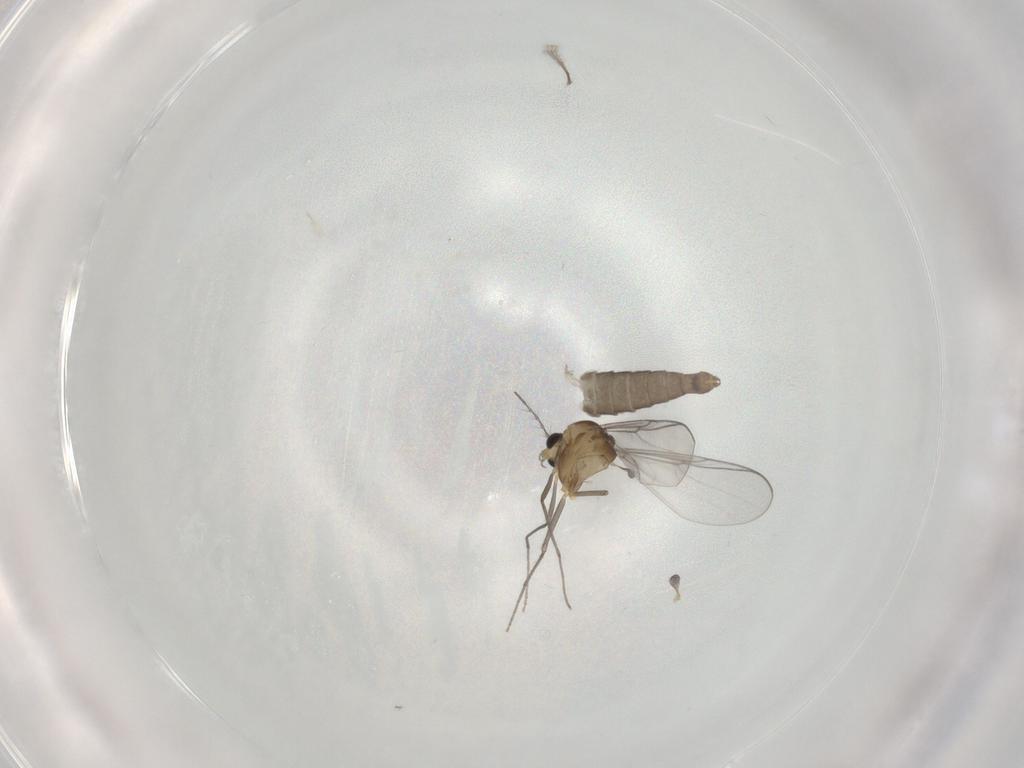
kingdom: Animalia
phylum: Arthropoda
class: Insecta
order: Diptera
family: Chironomidae
